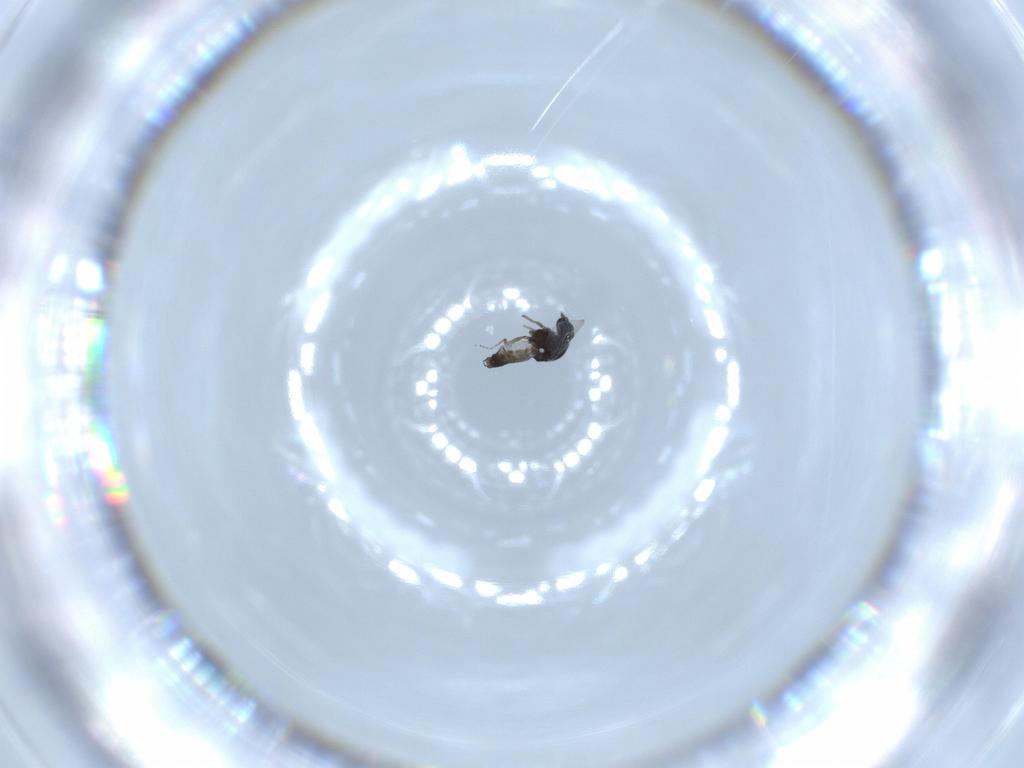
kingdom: Animalia
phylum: Arthropoda
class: Insecta
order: Diptera
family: Ceratopogonidae
